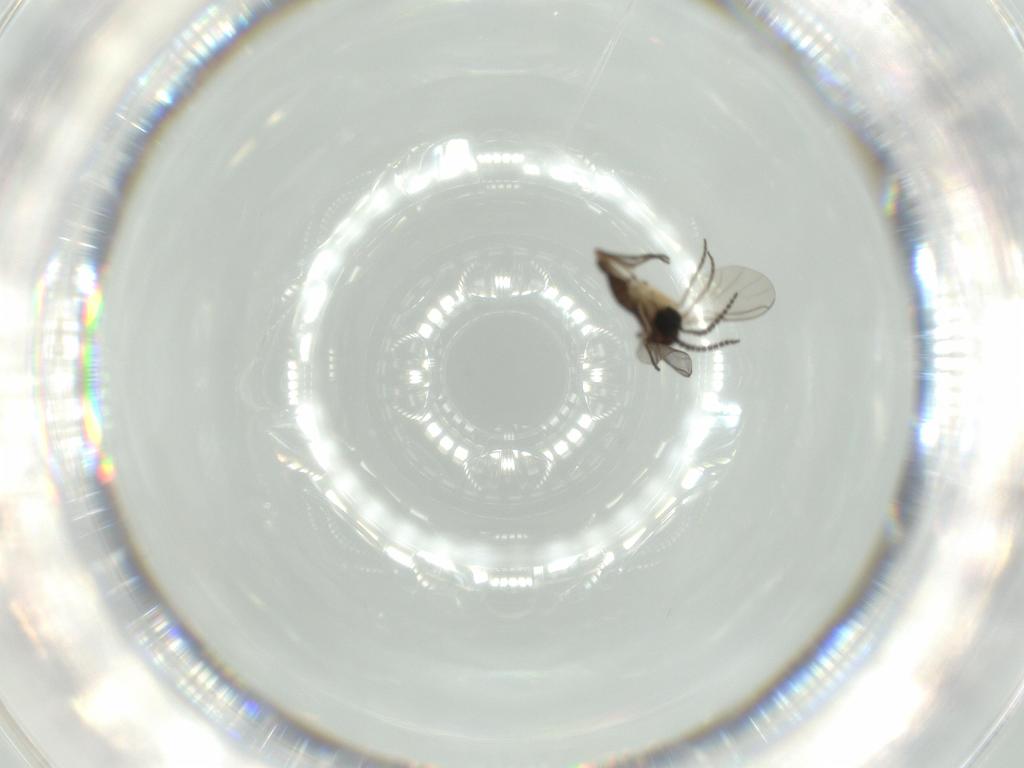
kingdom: Animalia
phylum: Arthropoda
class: Insecta
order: Diptera
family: Sciaridae
